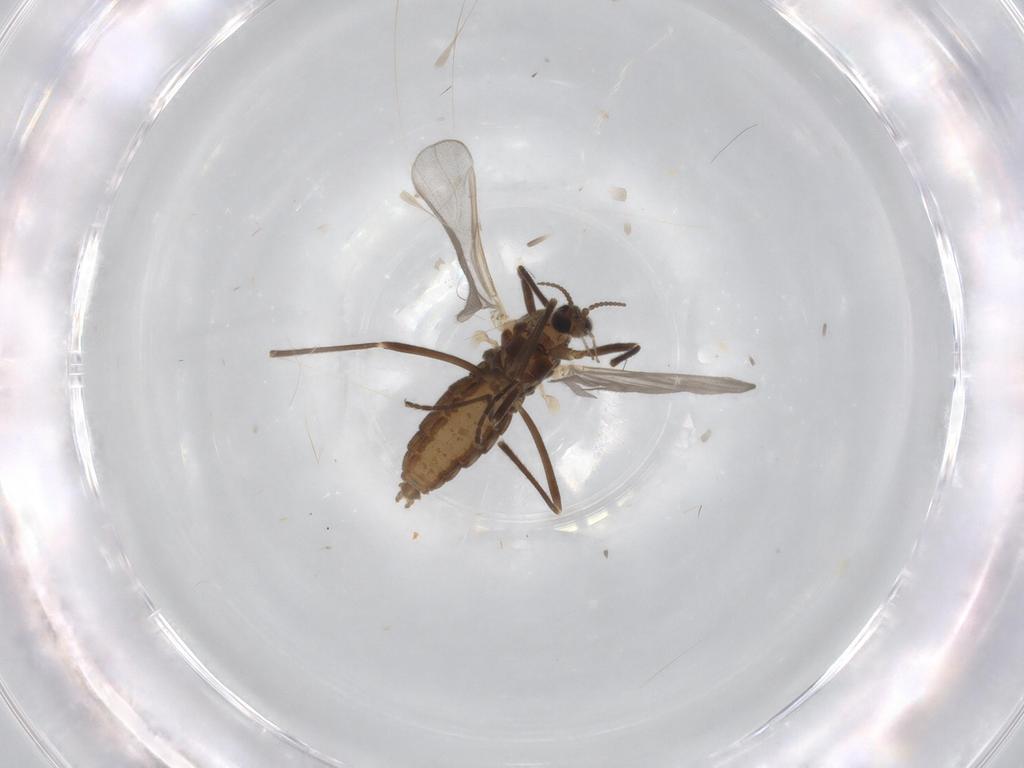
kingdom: Animalia
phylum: Arthropoda
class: Insecta
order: Diptera
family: Cecidomyiidae
